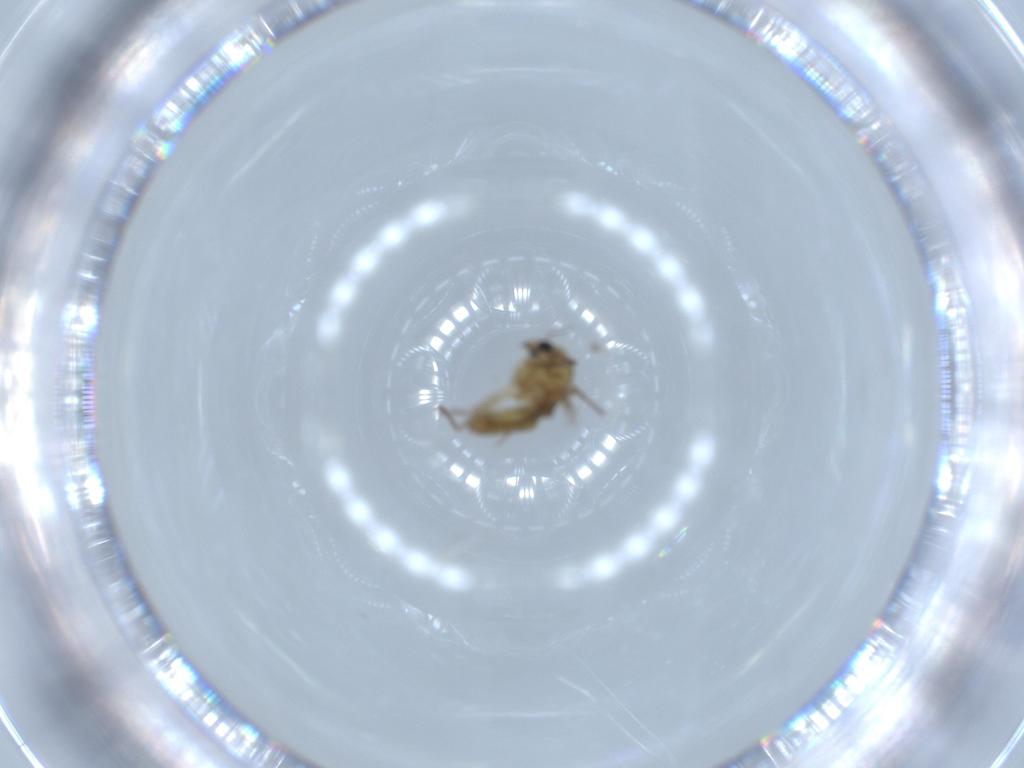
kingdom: Animalia
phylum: Arthropoda
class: Insecta
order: Diptera
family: Chironomidae
